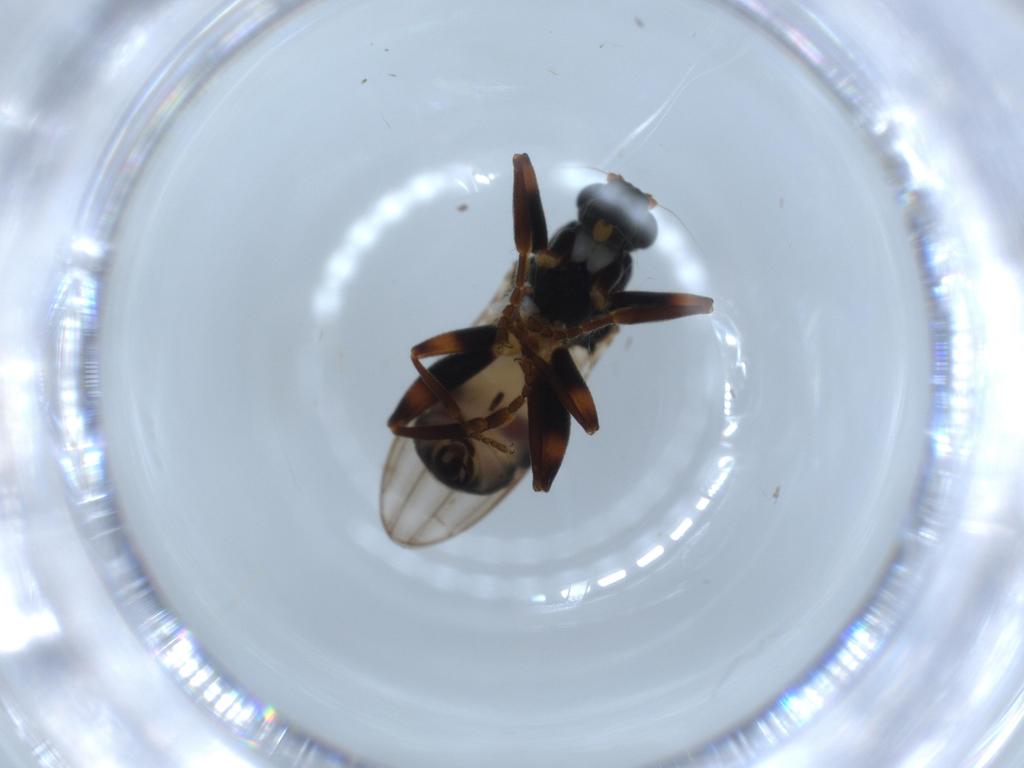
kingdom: Animalia
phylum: Arthropoda
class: Insecta
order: Diptera
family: Sphaeroceridae
